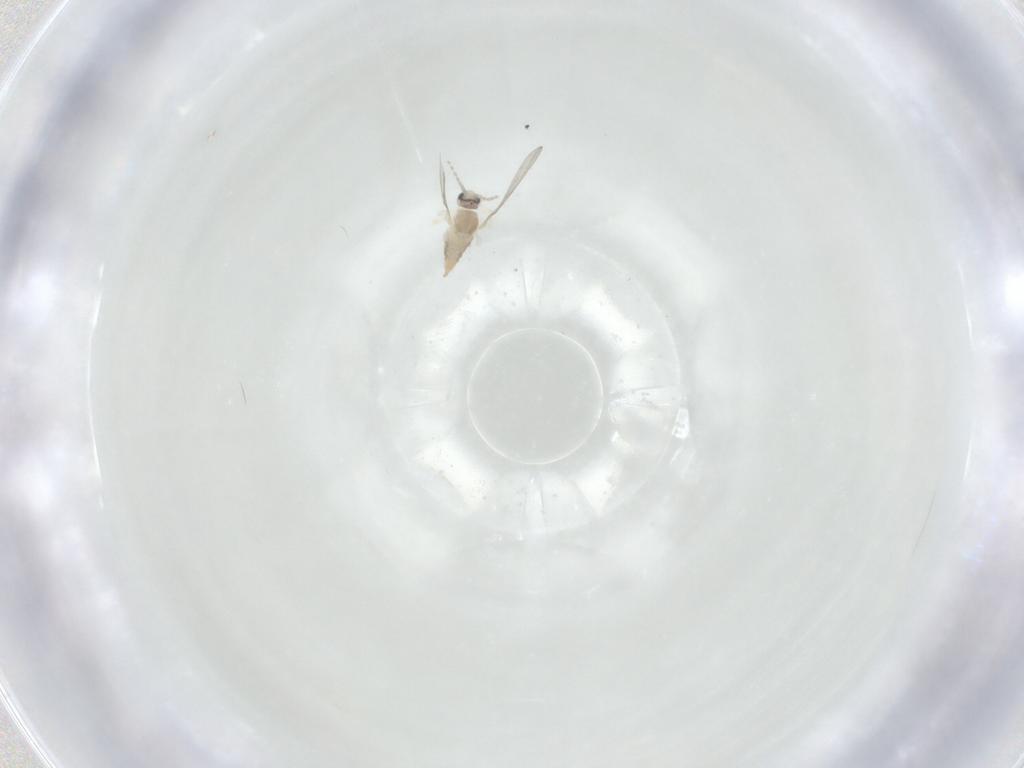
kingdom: Animalia
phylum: Arthropoda
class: Insecta
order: Diptera
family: Cecidomyiidae
